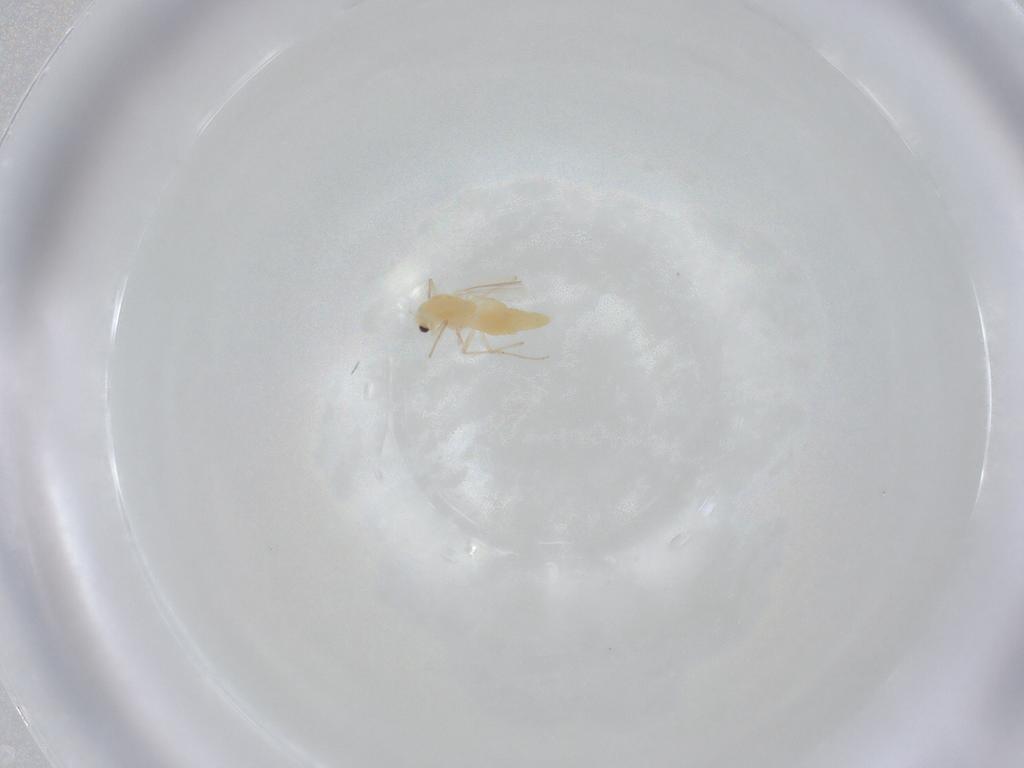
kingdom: Animalia
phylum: Arthropoda
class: Insecta
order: Diptera
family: Chironomidae
